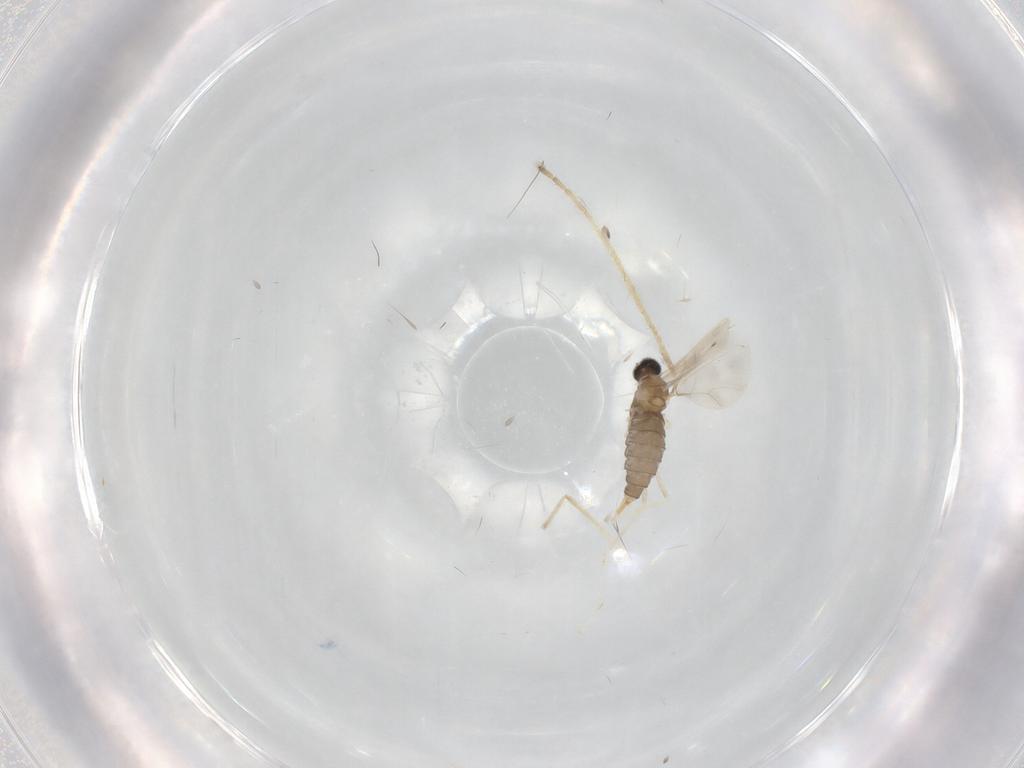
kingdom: Animalia
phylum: Arthropoda
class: Insecta
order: Diptera
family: Cecidomyiidae
